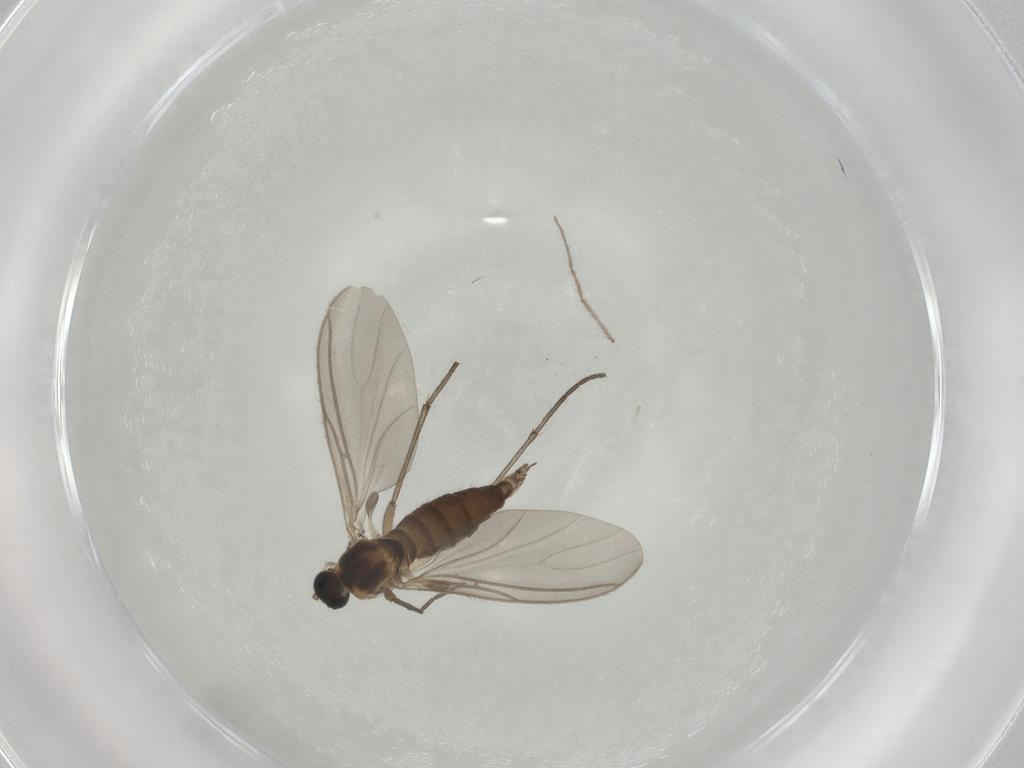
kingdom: Animalia
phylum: Arthropoda
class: Insecta
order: Diptera
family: Sciaridae
